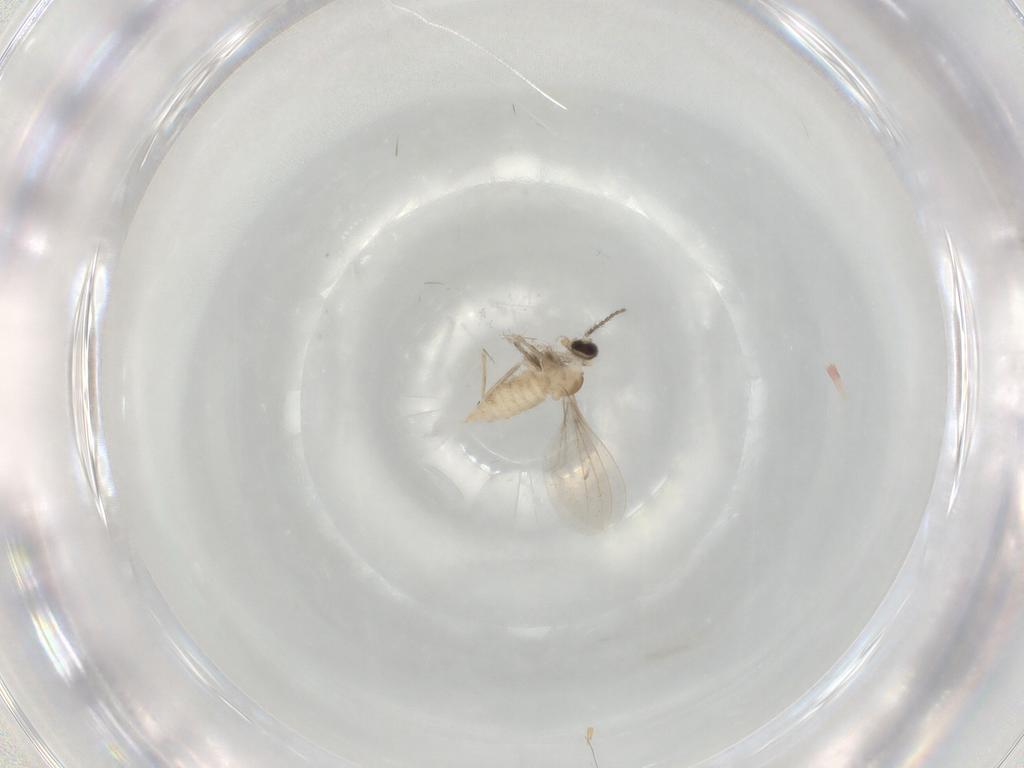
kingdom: Animalia
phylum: Arthropoda
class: Insecta
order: Diptera
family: Cecidomyiidae
